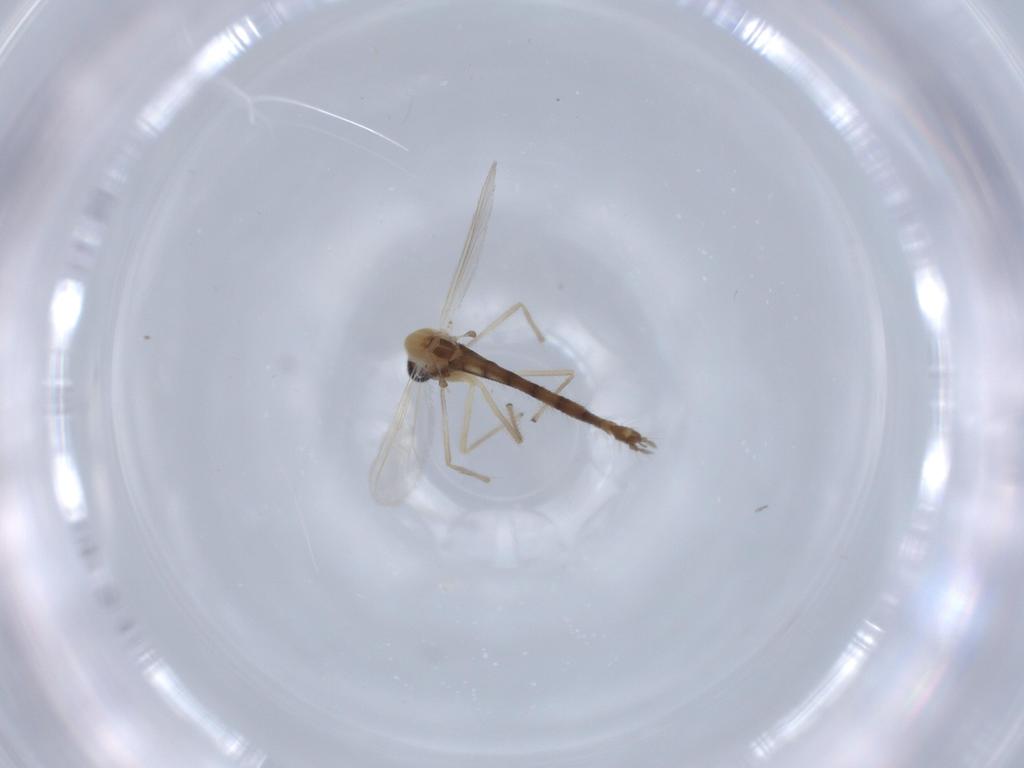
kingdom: Animalia
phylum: Arthropoda
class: Insecta
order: Diptera
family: Chironomidae
